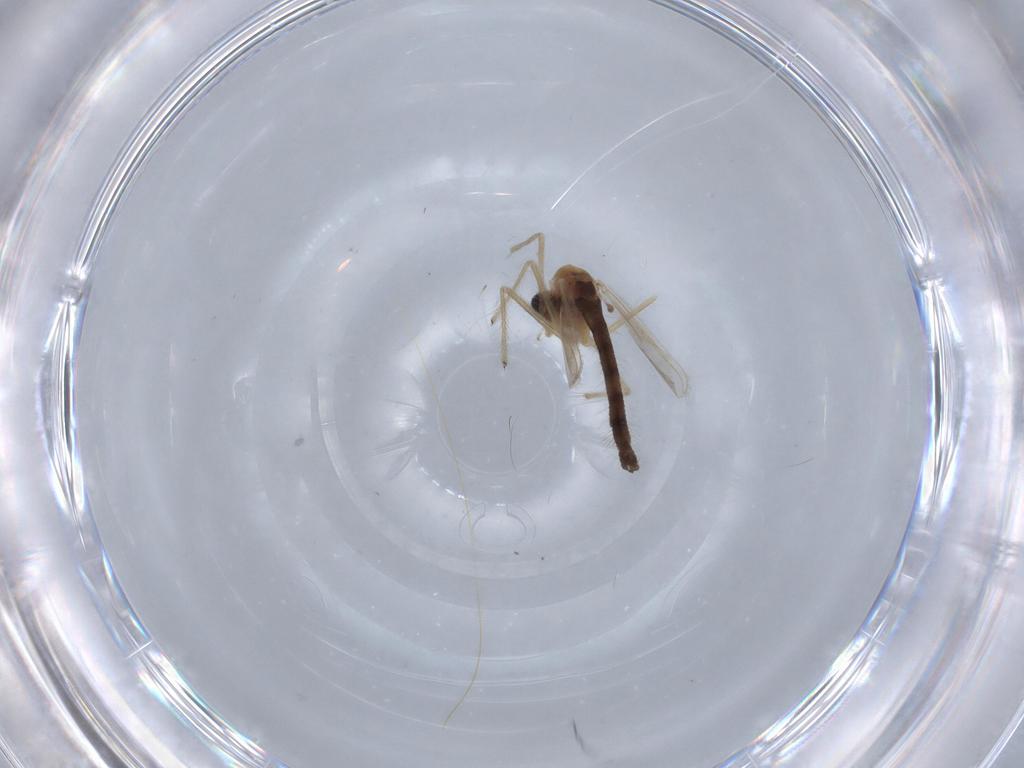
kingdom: Animalia
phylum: Arthropoda
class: Insecta
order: Diptera
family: Chironomidae
